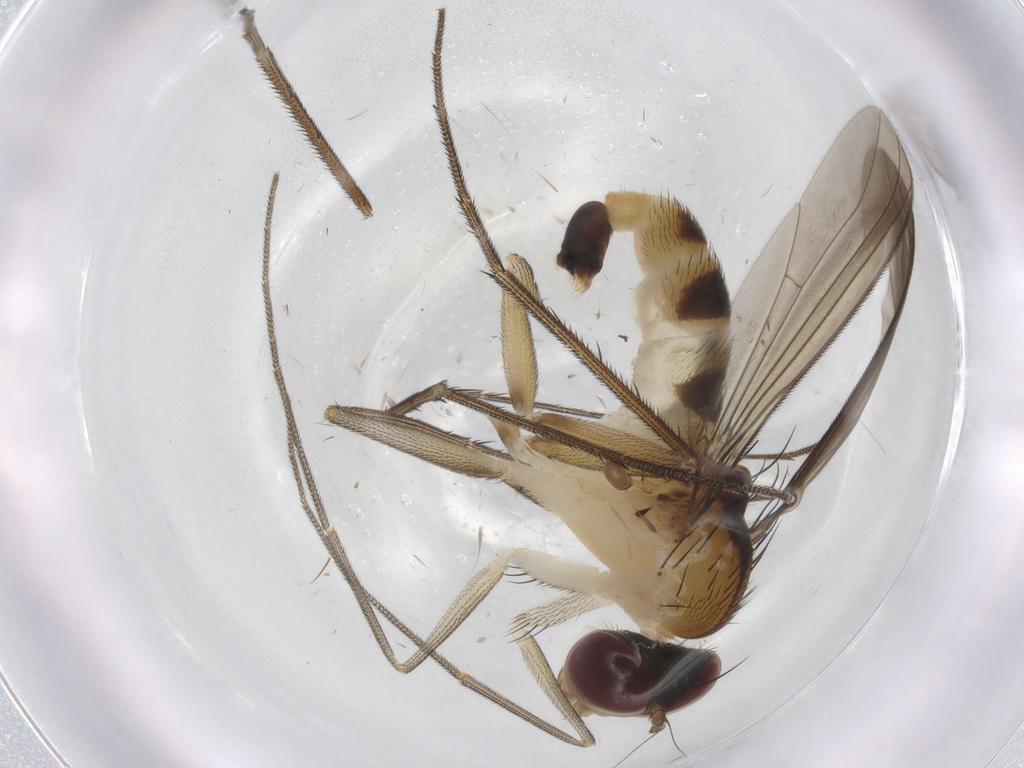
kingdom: Animalia
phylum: Arthropoda
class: Insecta
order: Diptera
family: Dolichopodidae
